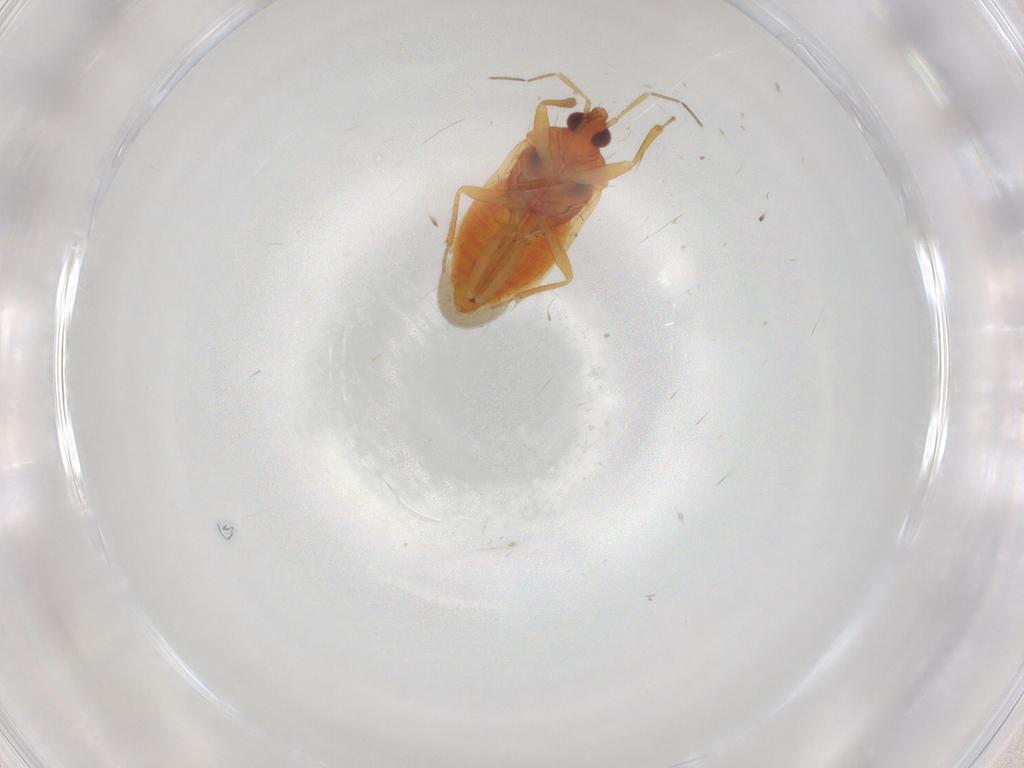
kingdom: Animalia
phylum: Arthropoda
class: Insecta
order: Hemiptera
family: Anthocoridae
